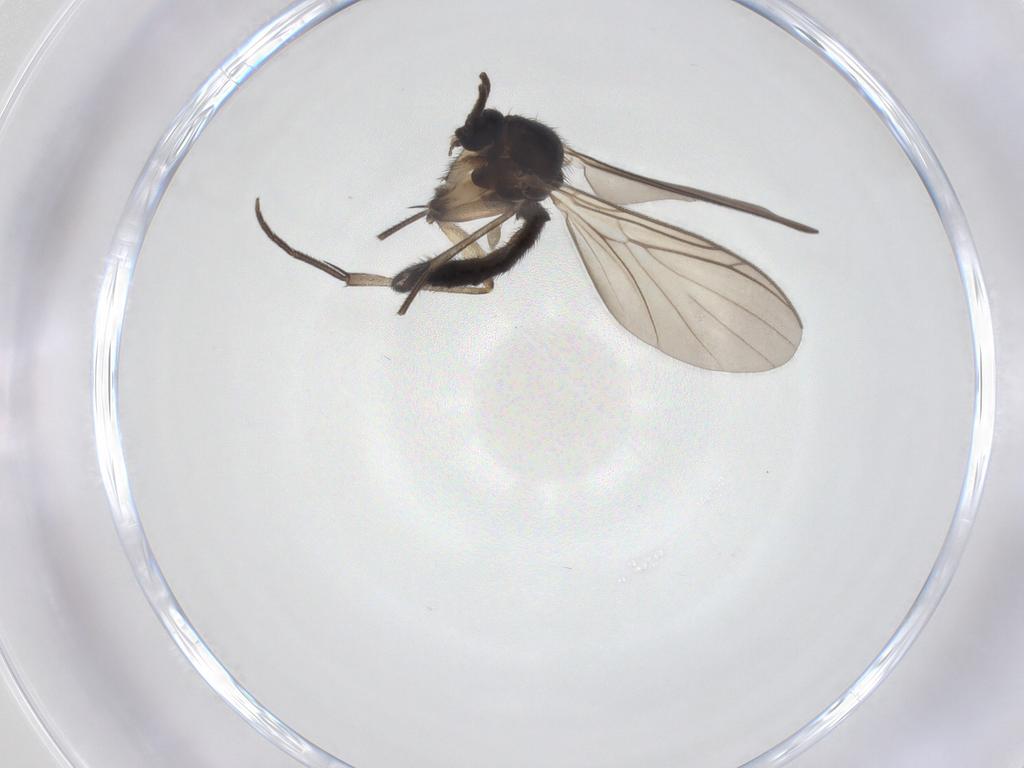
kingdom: Animalia
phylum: Arthropoda
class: Insecta
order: Diptera
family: Keroplatidae
